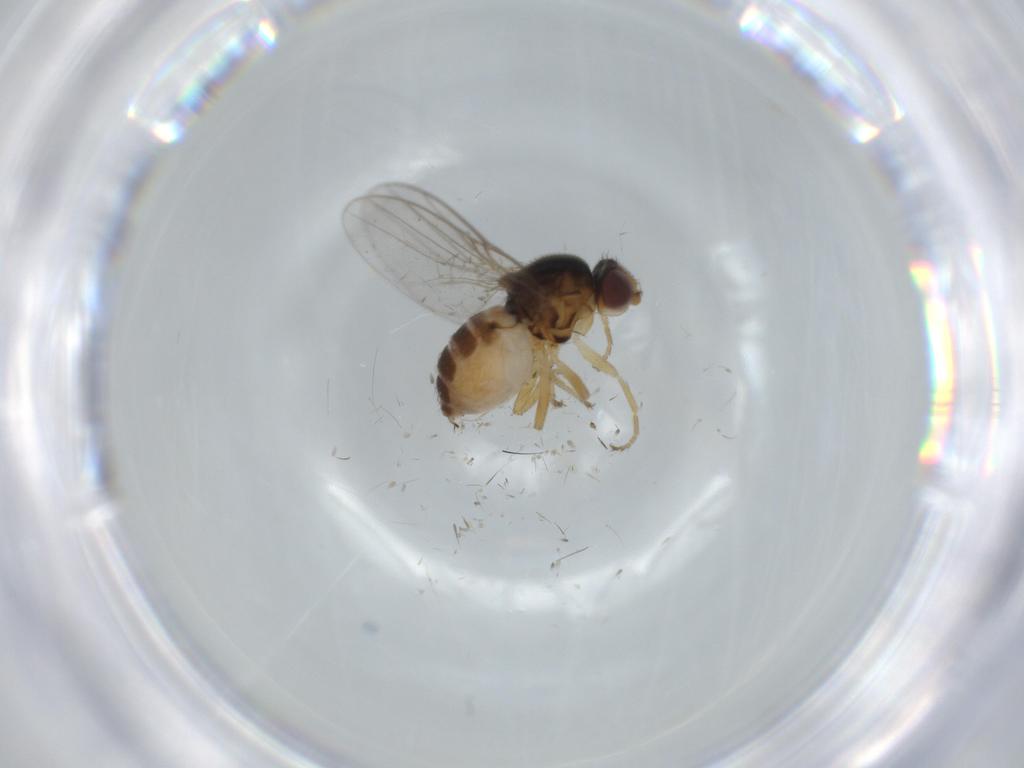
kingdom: Animalia
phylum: Arthropoda
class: Insecta
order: Diptera
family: Chloropidae
